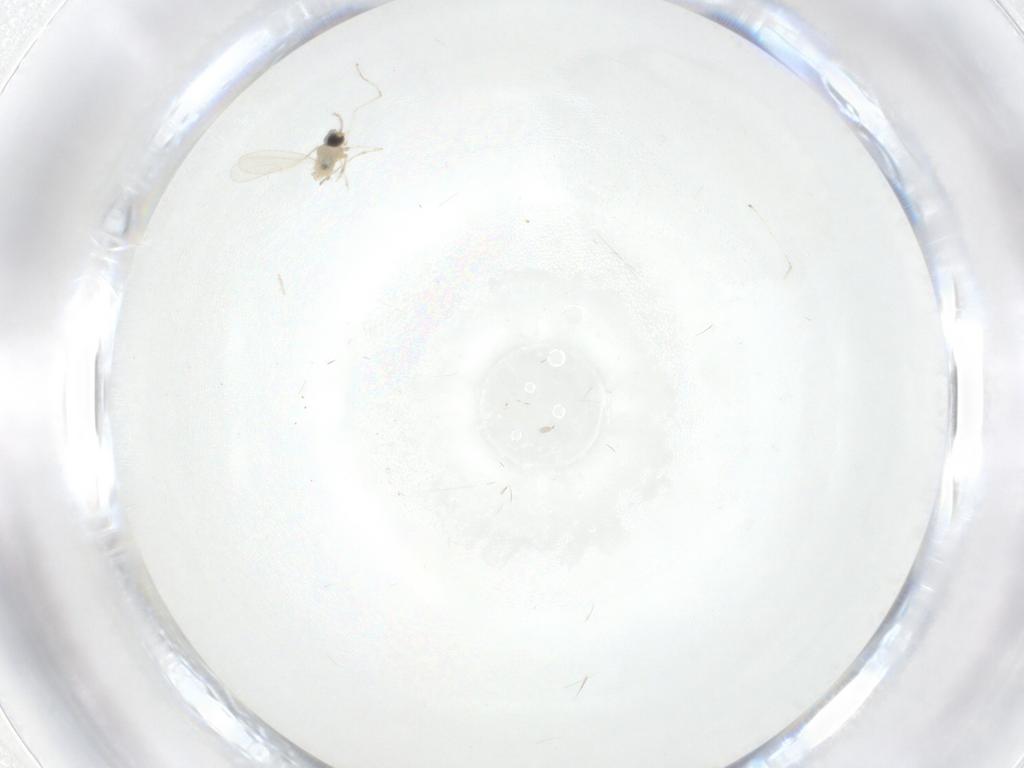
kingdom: Animalia
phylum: Arthropoda
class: Insecta
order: Diptera
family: Cecidomyiidae
